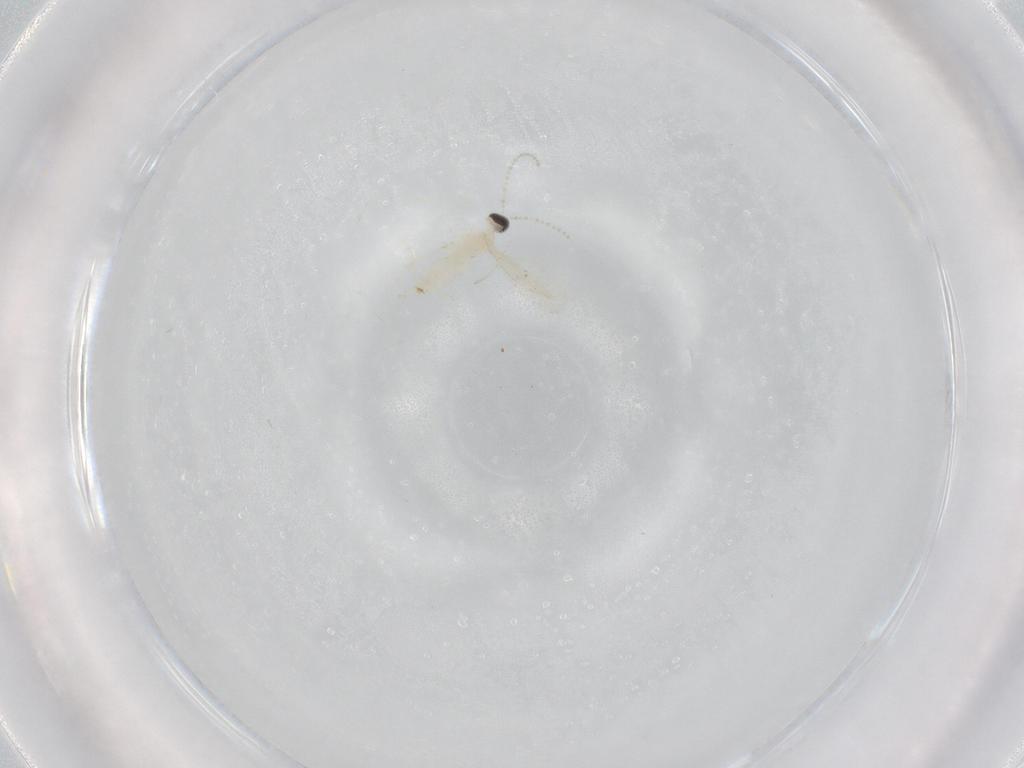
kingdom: Animalia
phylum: Arthropoda
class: Insecta
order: Diptera
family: Cecidomyiidae
